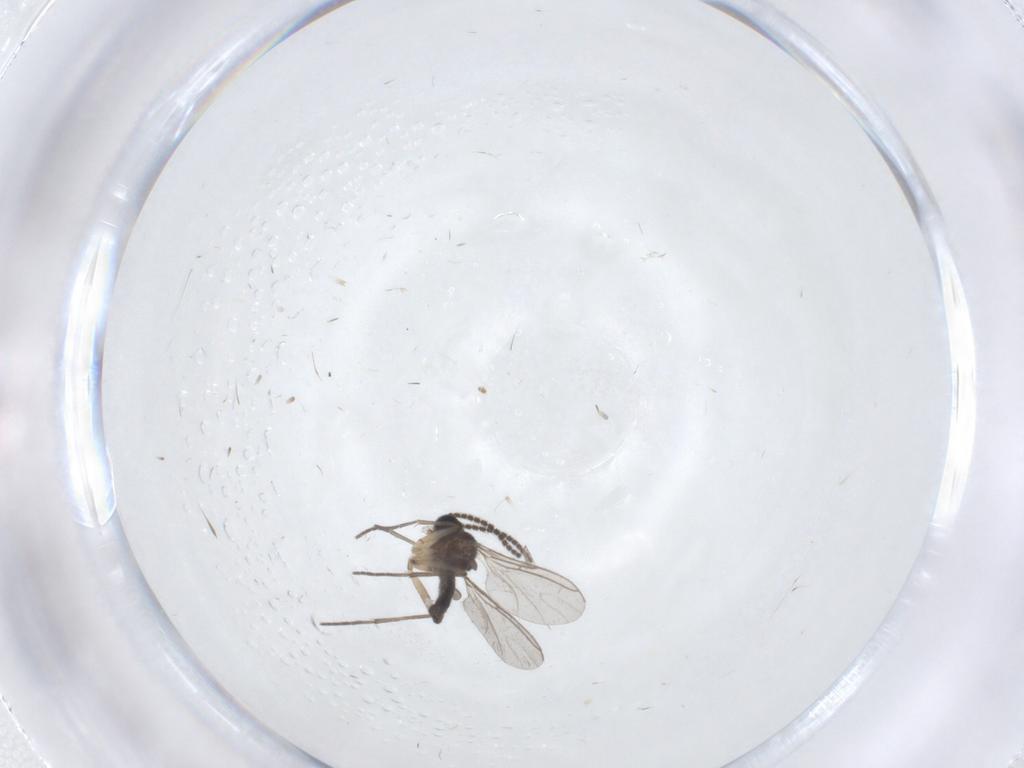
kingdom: Animalia
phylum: Arthropoda
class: Insecta
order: Diptera
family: Sciaridae
